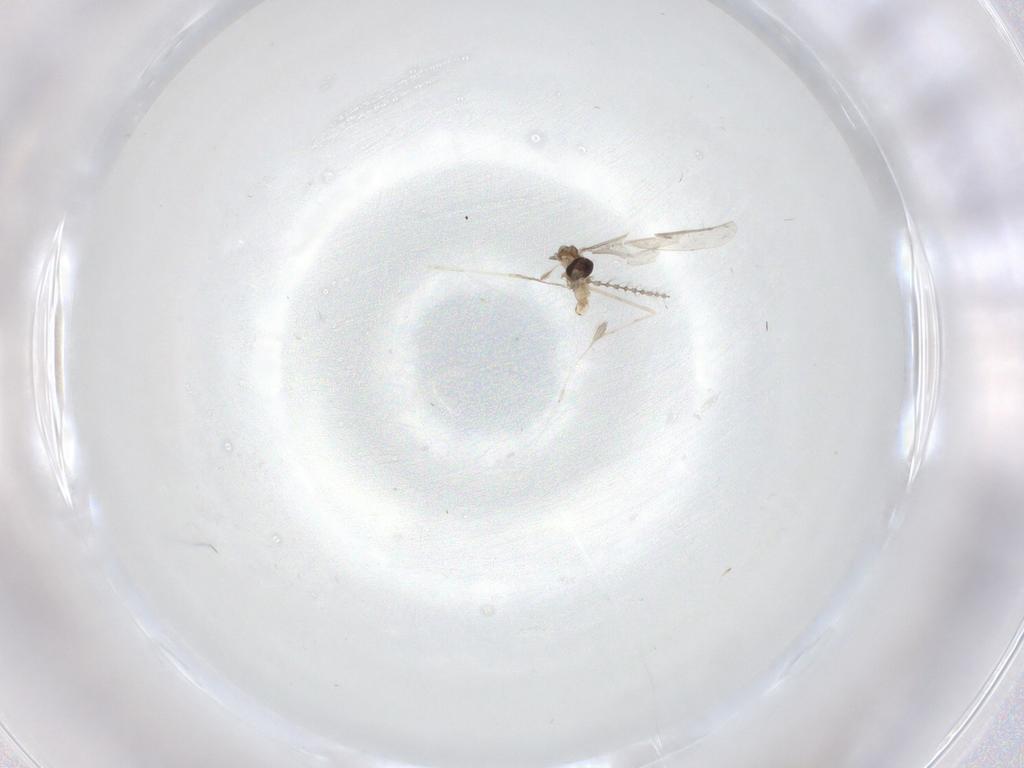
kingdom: Animalia
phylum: Arthropoda
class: Insecta
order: Diptera
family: Cecidomyiidae
